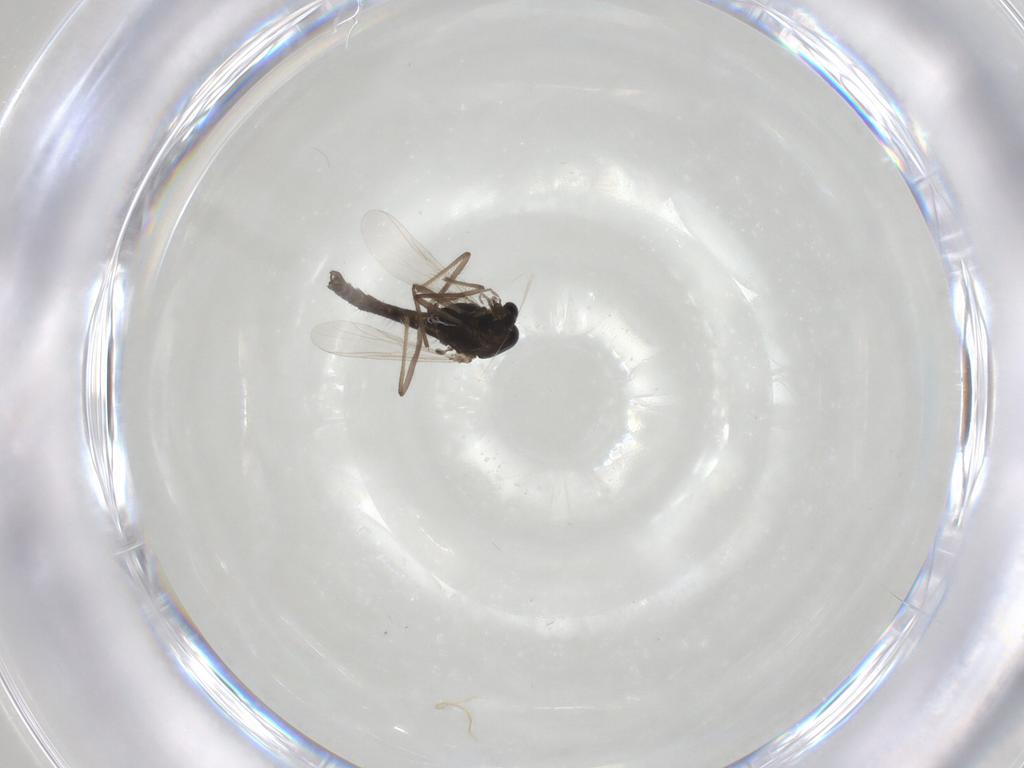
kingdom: Animalia
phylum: Arthropoda
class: Insecta
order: Diptera
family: Chironomidae
